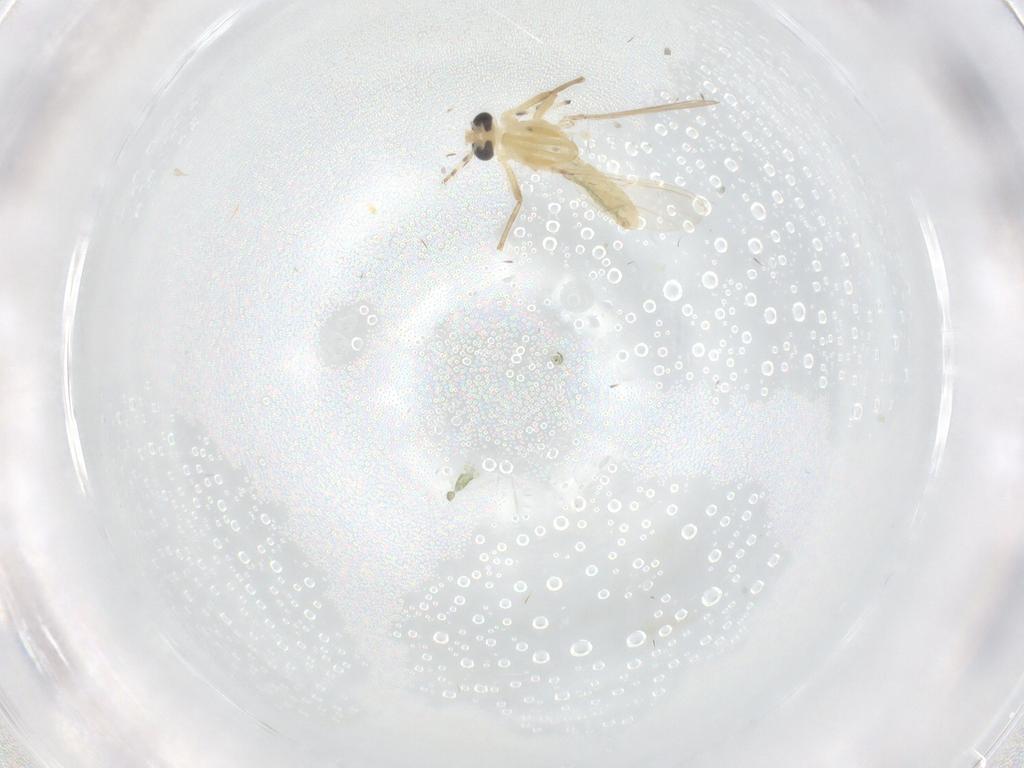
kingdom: Animalia
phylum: Arthropoda
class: Insecta
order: Diptera
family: Chironomidae
